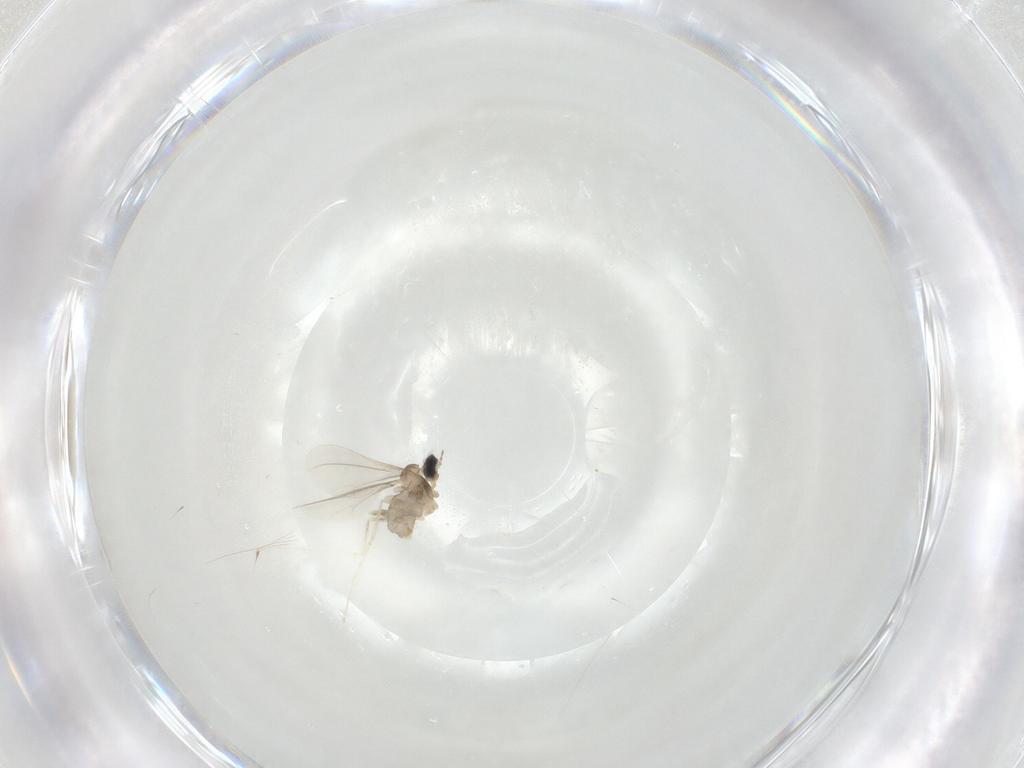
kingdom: Animalia
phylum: Arthropoda
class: Insecta
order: Diptera
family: Cecidomyiidae
